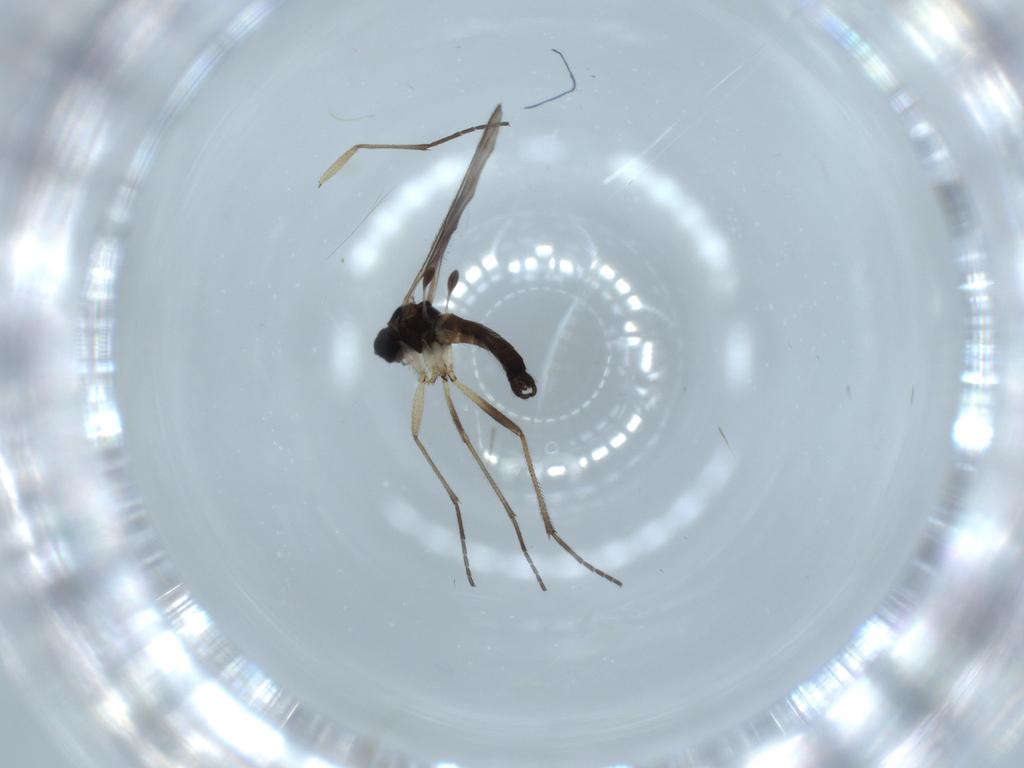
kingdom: Animalia
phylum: Arthropoda
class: Insecta
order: Diptera
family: Sciaridae
